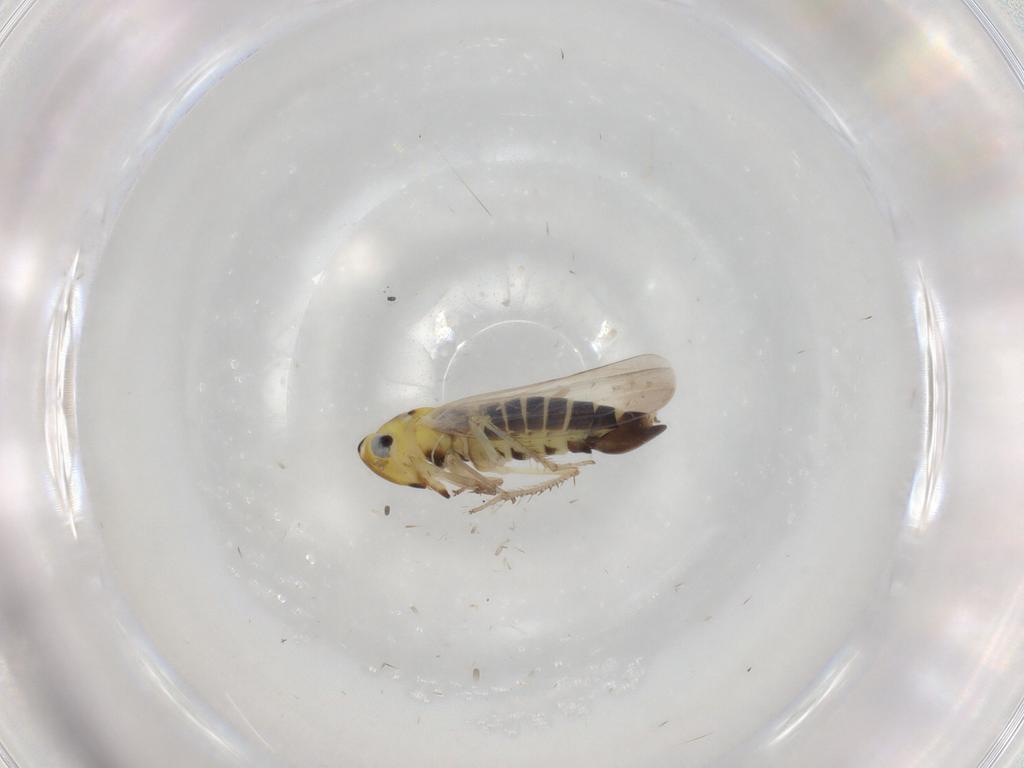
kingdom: Animalia
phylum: Arthropoda
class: Insecta
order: Hemiptera
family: Cicadellidae
